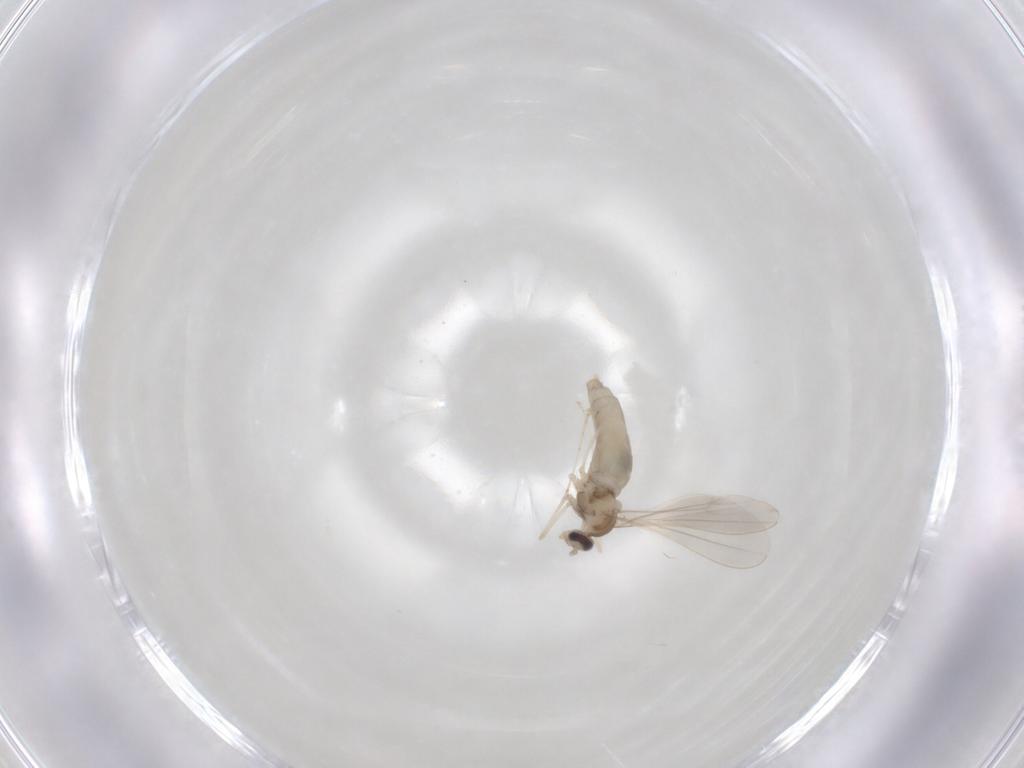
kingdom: Animalia
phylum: Arthropoda
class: Insecta
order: Diptera
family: Cecidomyiidae
